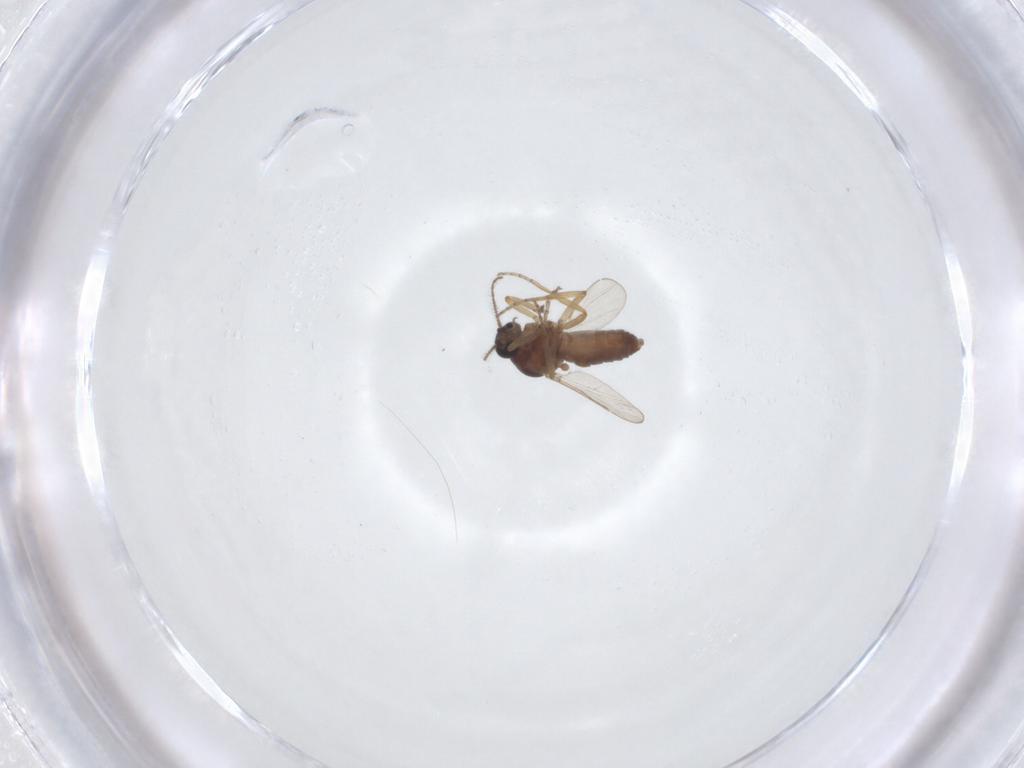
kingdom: Animalia
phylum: Arthropoda
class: Insecta
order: Diptera
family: Ceratopogonidae
